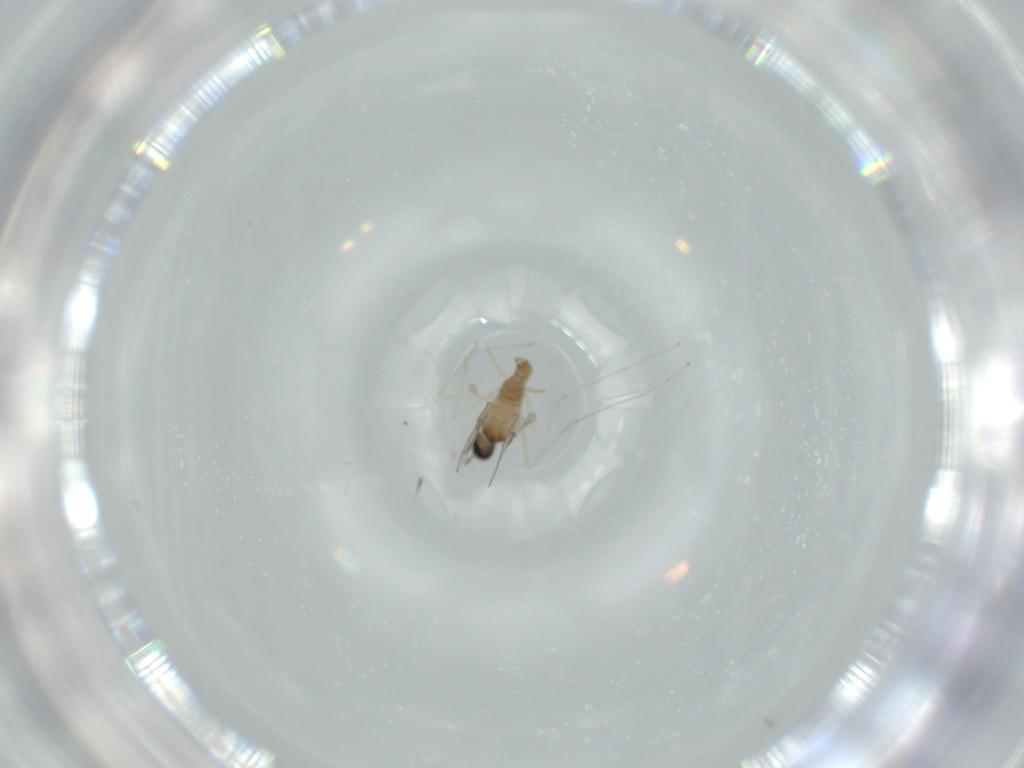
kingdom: Animalia
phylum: Arthropoda
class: Insecta
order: Diptera
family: Cecidomyiidae
